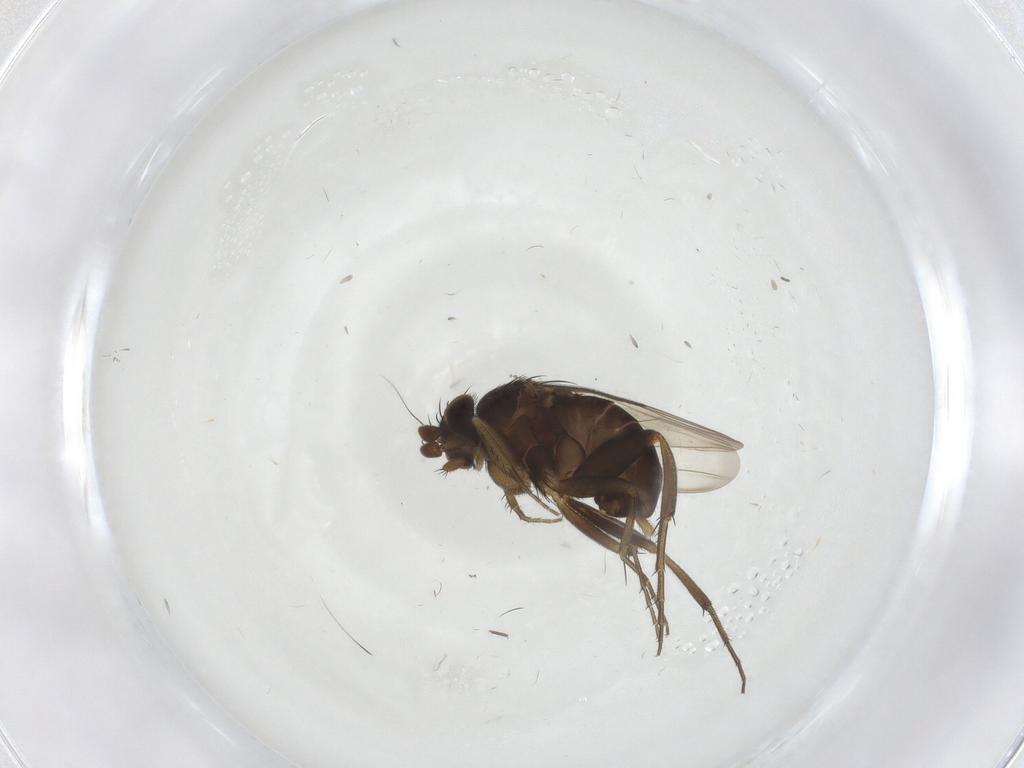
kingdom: Animalia
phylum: Arthropoda
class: Insecta
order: Diptera
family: Phoridae
